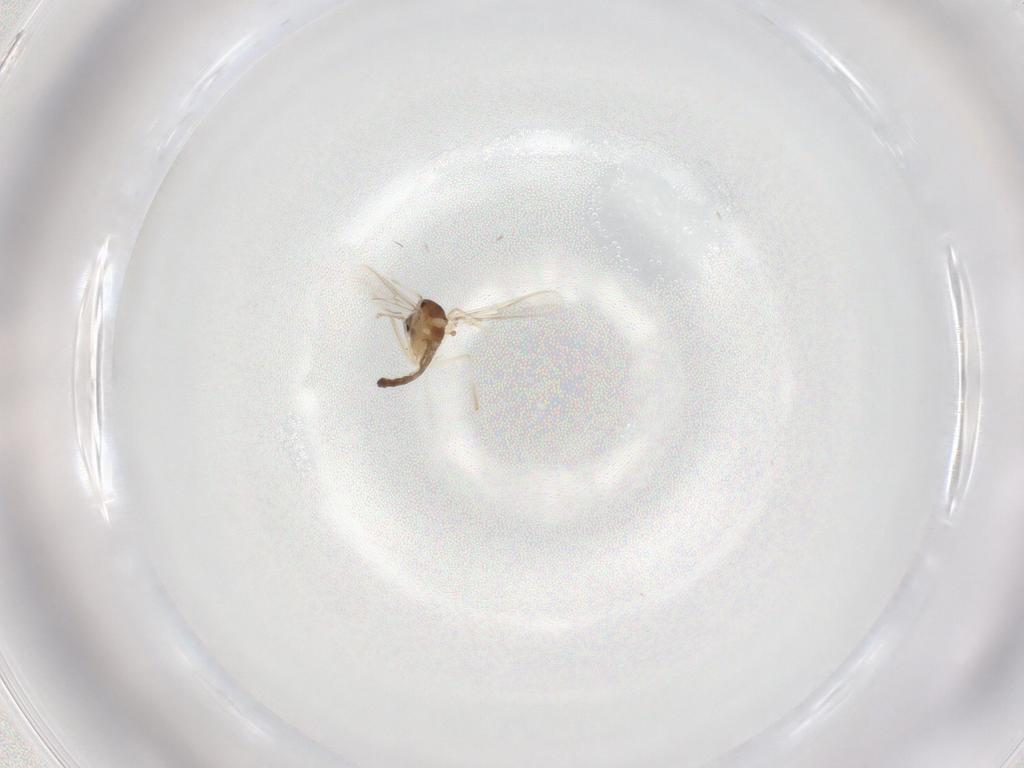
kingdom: Animalia
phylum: Arthropoda
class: Insecta
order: Diptera
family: Chironomidae
